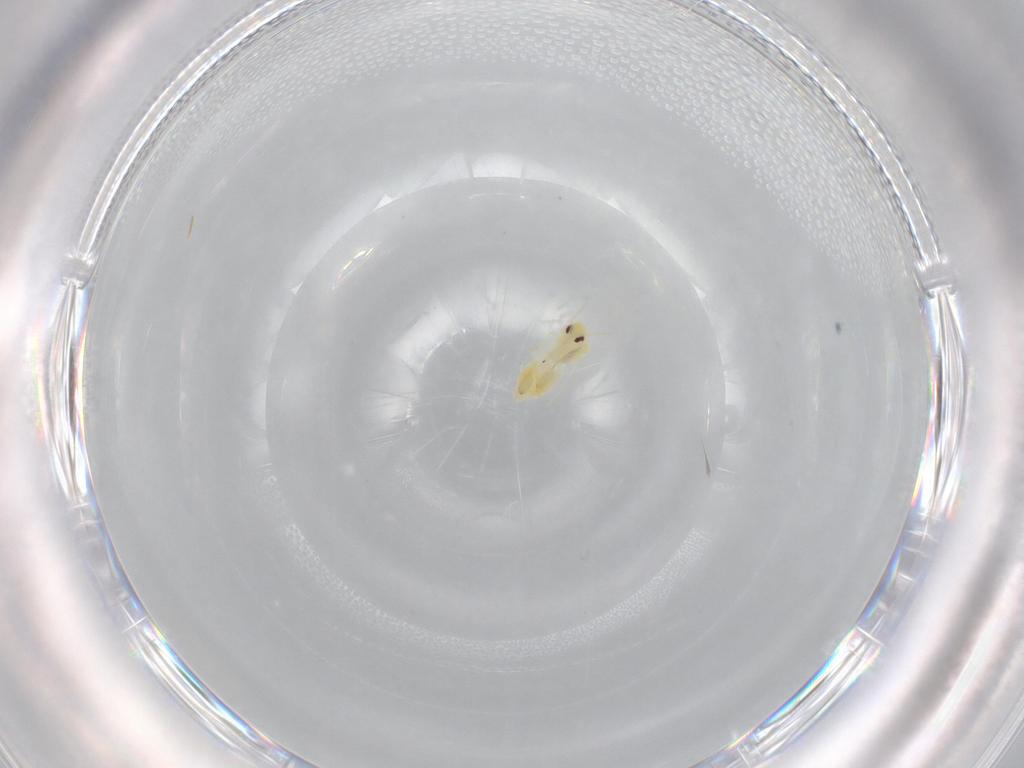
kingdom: Animalia
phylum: Arthropoda
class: Insecta
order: Hemiptera
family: Aleyrodidae
